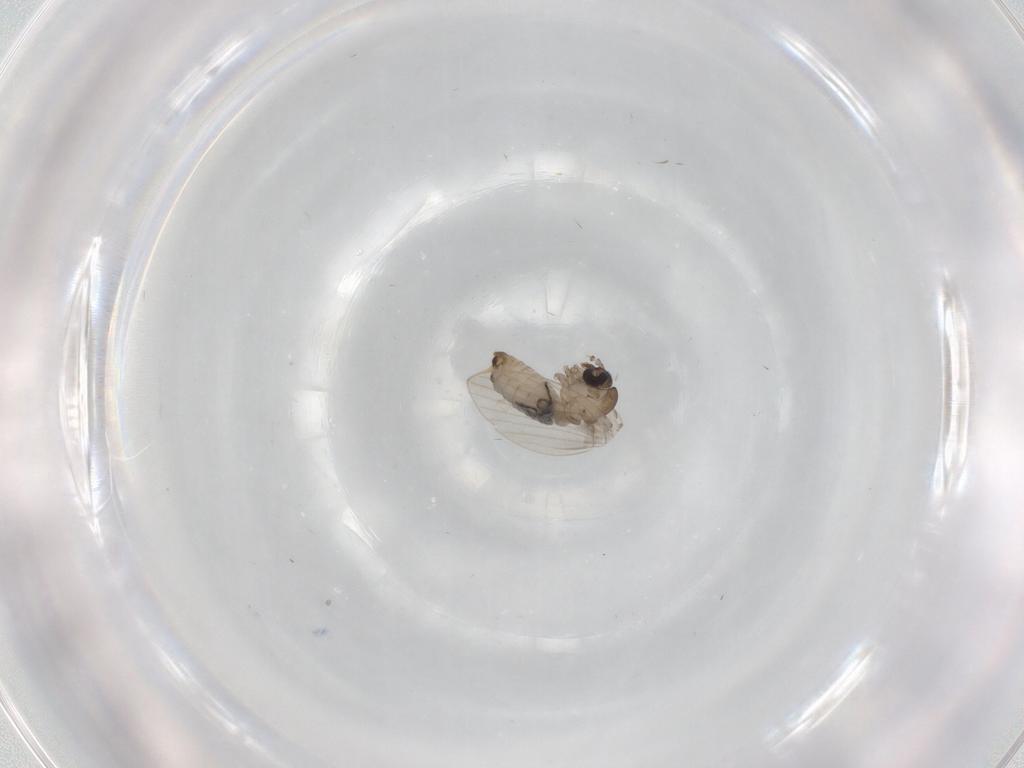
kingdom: Animalia
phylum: Arthropoda
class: Insecta
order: Diptera
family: Psychodidae
